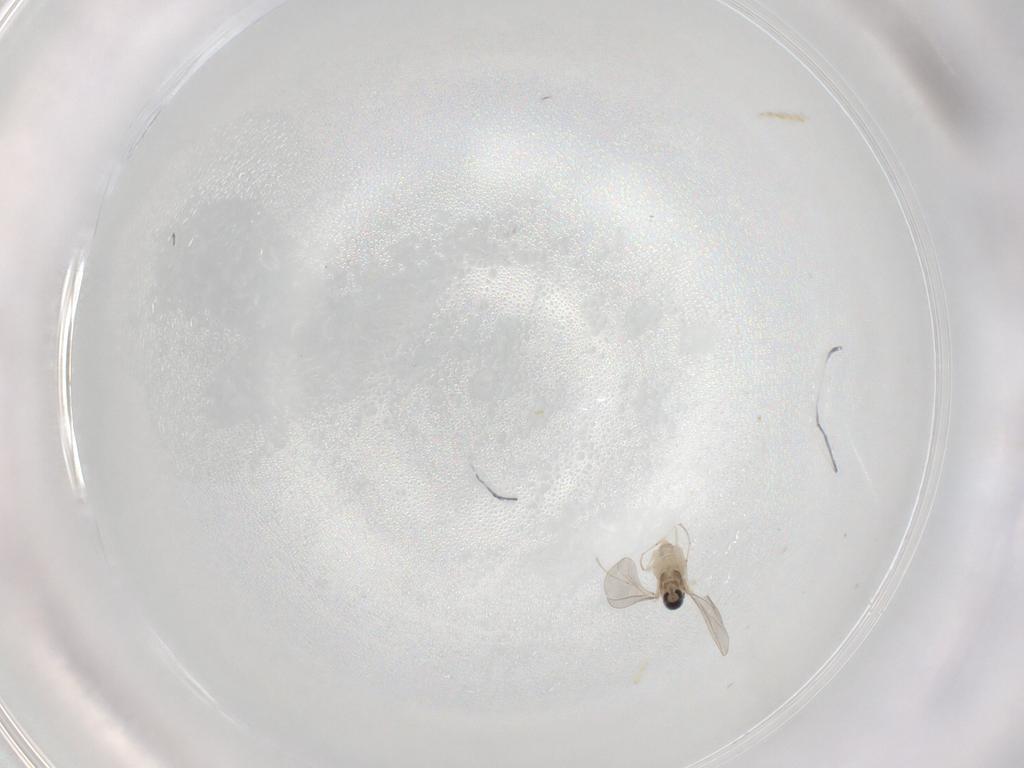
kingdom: Animalia
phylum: Arthropoda
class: Insecta
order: Diptera
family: Cecidomyiidae
